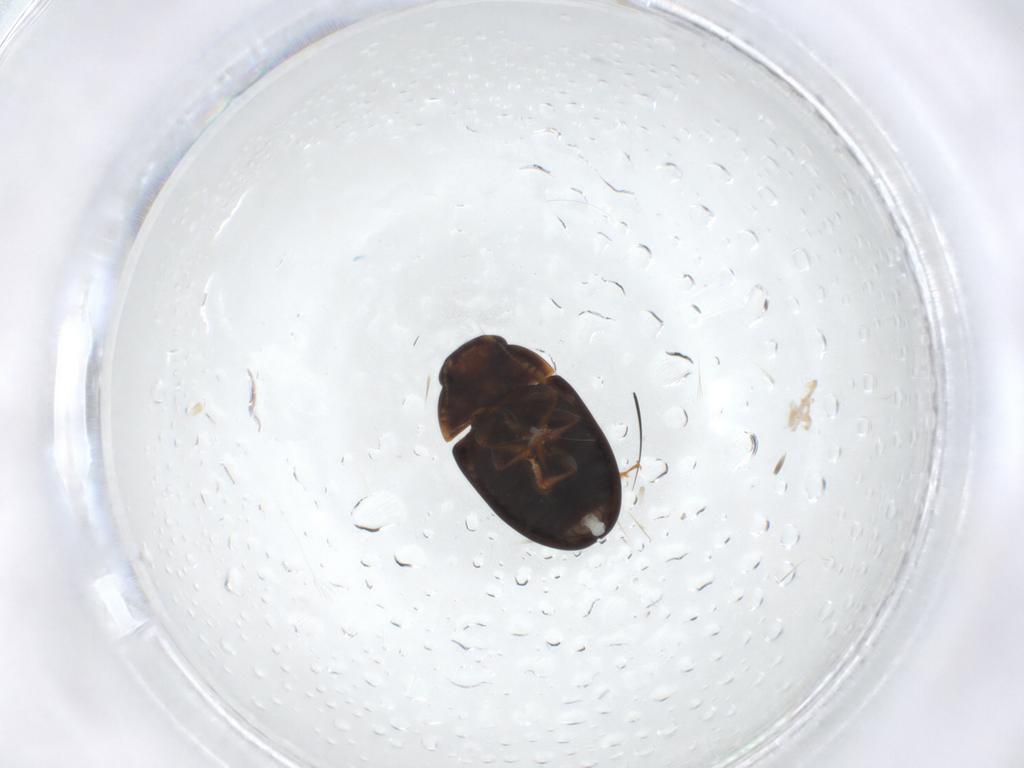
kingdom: Animalia
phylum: Arthropoda
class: Insecta
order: Coleoptera
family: Phalacridae
